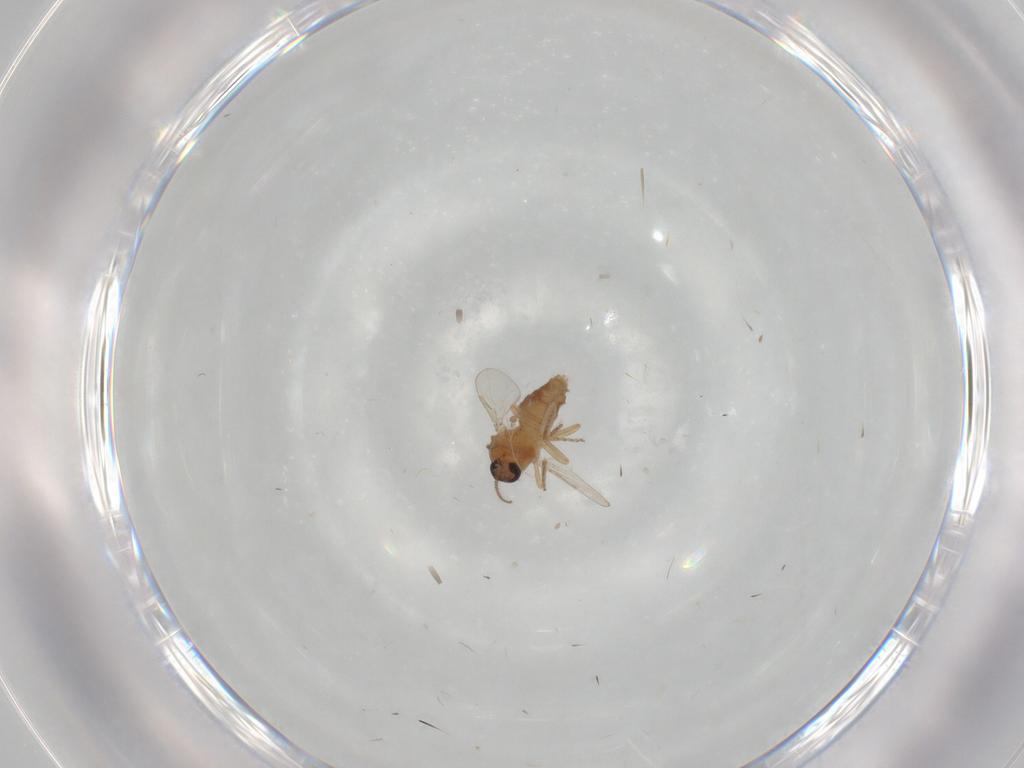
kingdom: Animalia
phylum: Arthropoda
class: Insecta
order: Diptera
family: Ceratopogonidae
